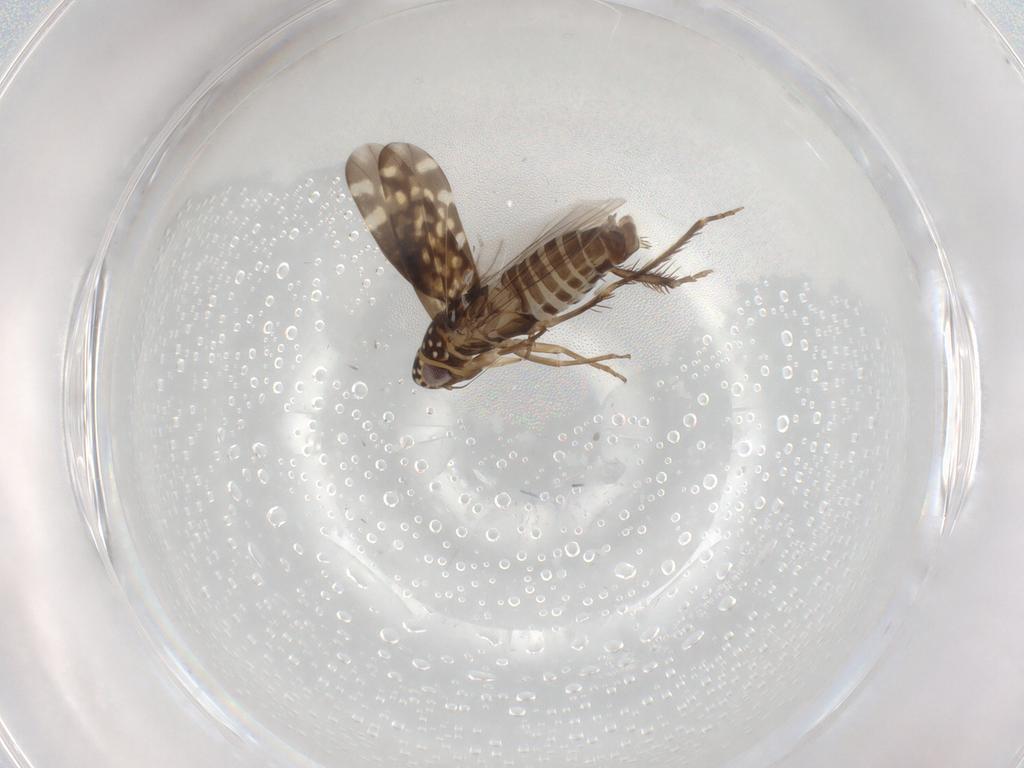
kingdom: Animalia
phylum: Arthropoda
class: Insecta
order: Hemiptera
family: Cicadellidae
